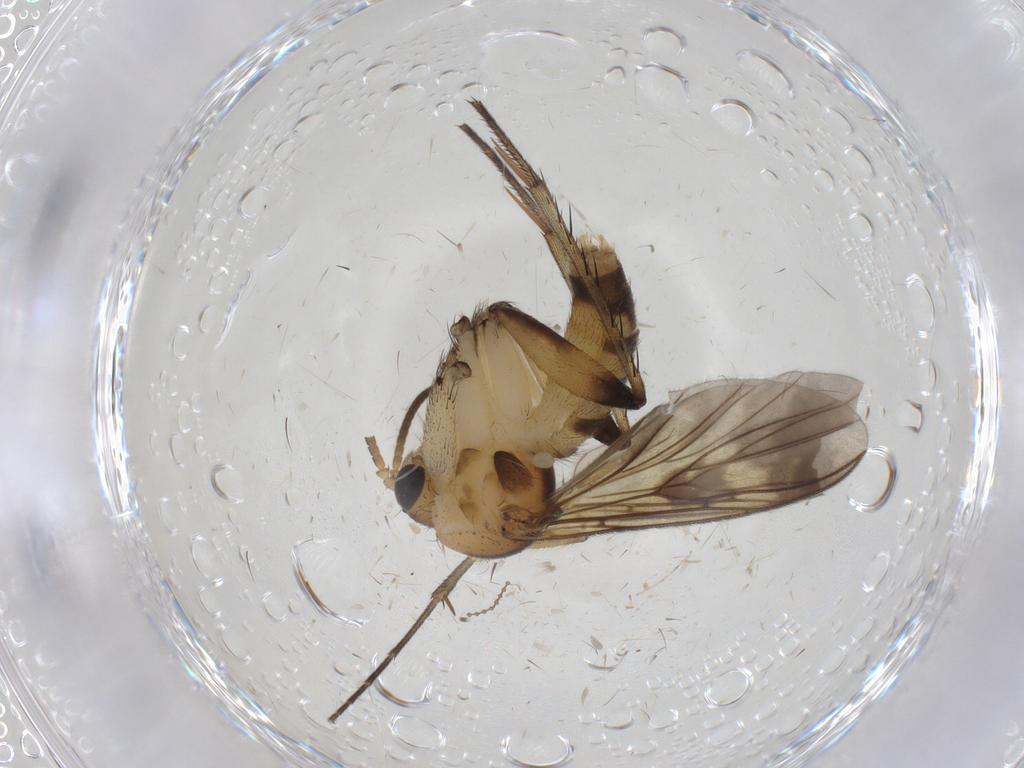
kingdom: Animalia
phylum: Arthropoda
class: Insecta
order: Diptera
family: Mycetophilidae
